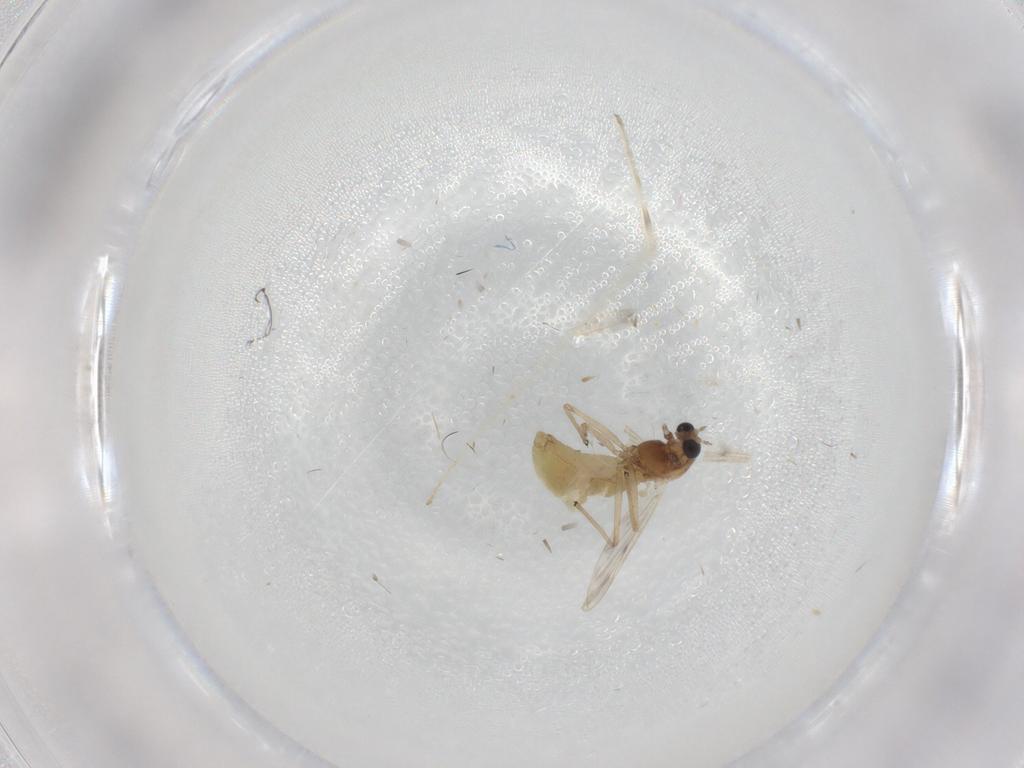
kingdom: Animalia
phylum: Arthropoda
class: Insecta
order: Diptera
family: Chironomidae
